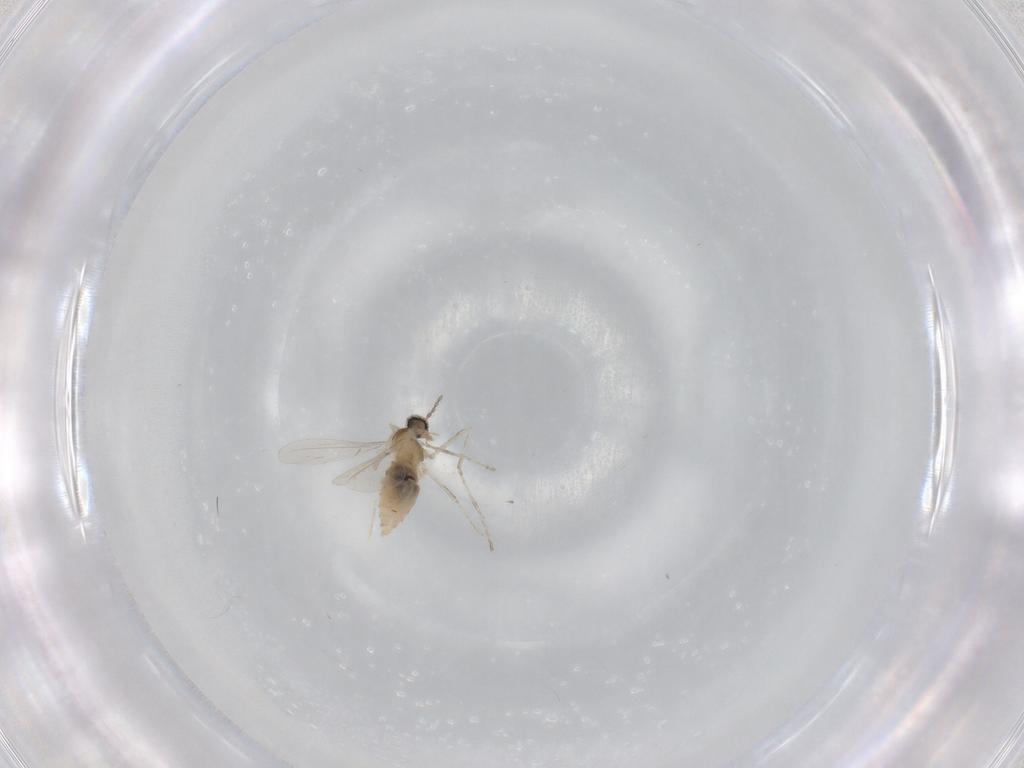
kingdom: Animalia
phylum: Arthropoda
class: Insecta
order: Diptera
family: Cecidomyiidae
